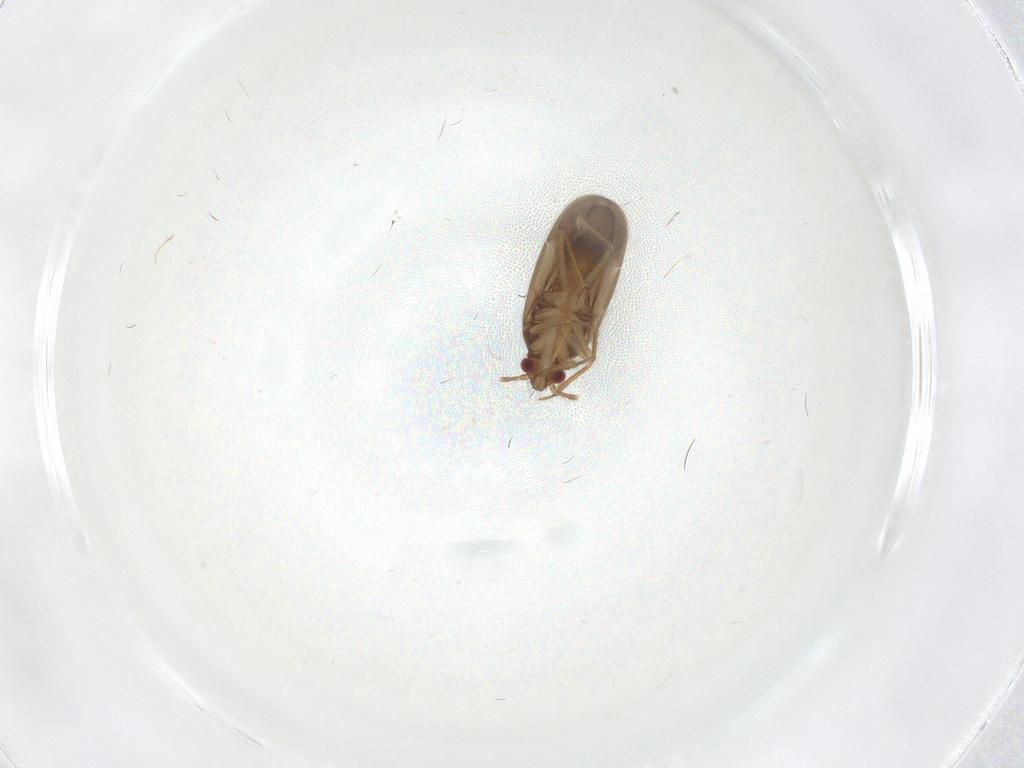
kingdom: Animalia
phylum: Arthropoda
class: Insecta
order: Hemiptera
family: Ceratocombidae
